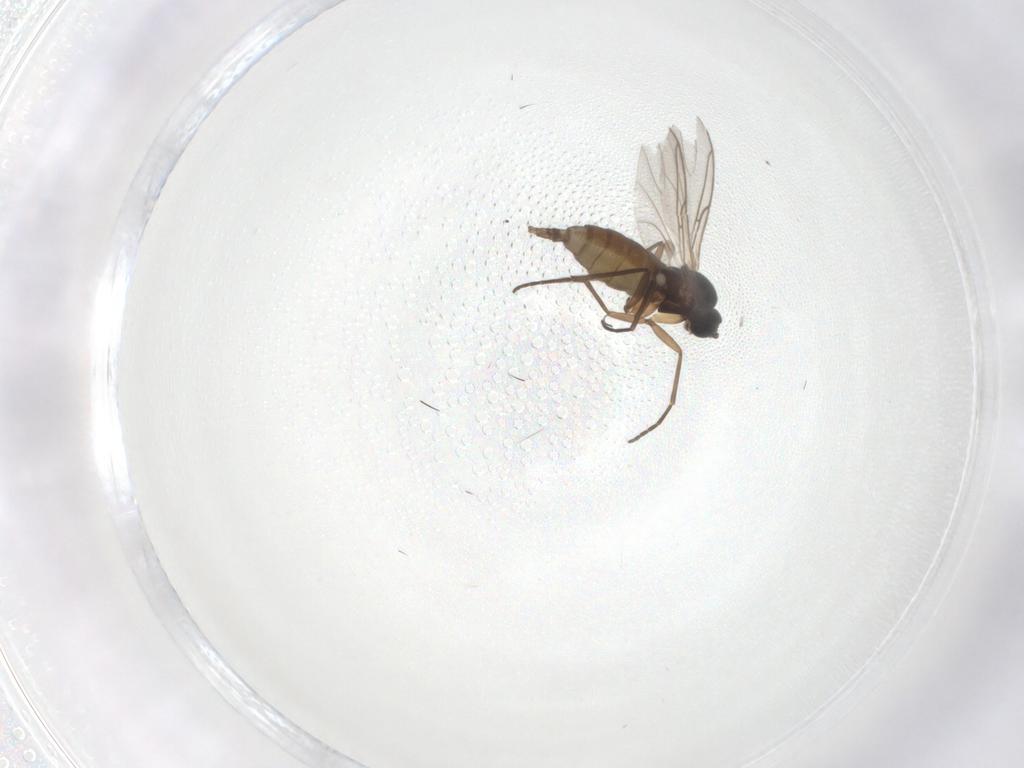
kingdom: Animalia
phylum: Arthropoda
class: Insecta
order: Diptera
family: Sciaridae
